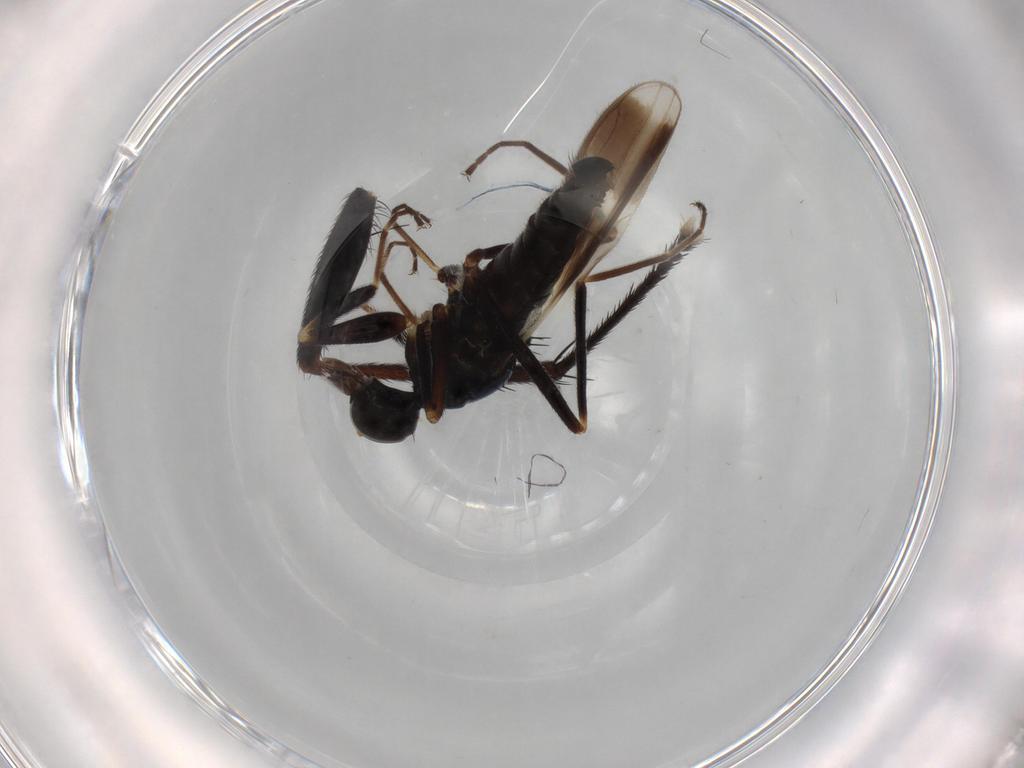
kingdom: Animalia
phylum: Arthropoda
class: Insecta
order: Diptera
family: Hybotidae
